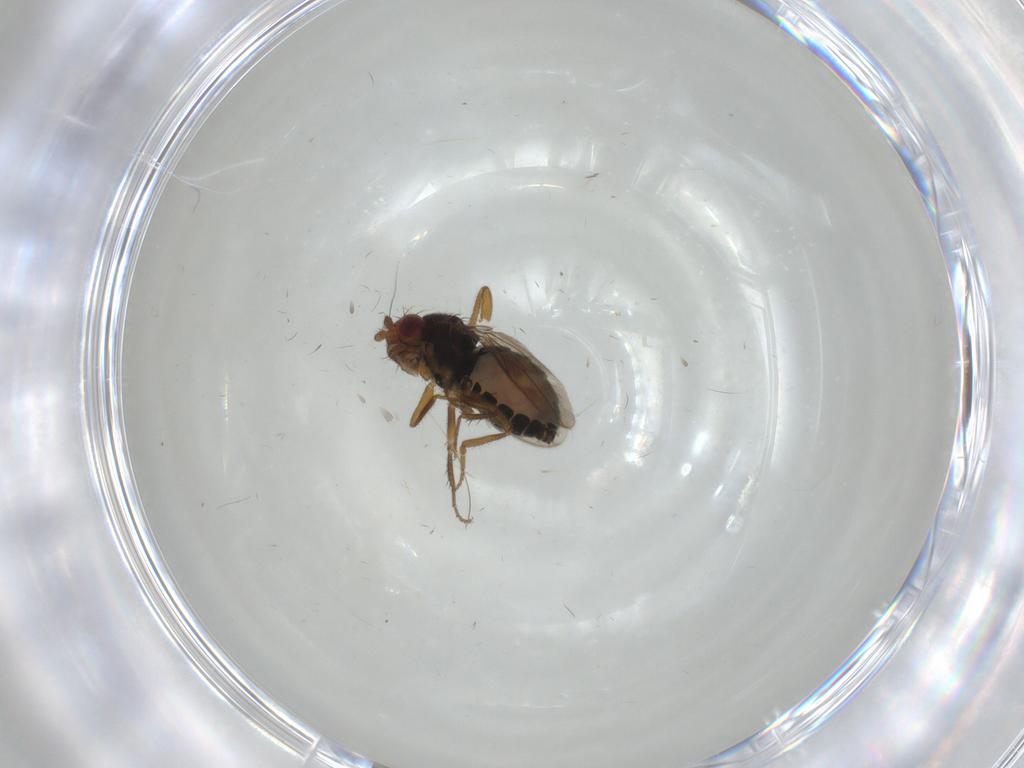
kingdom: Animalia
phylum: Arthropoda
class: Insecta
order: Diptera
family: Sphaeroceridae
